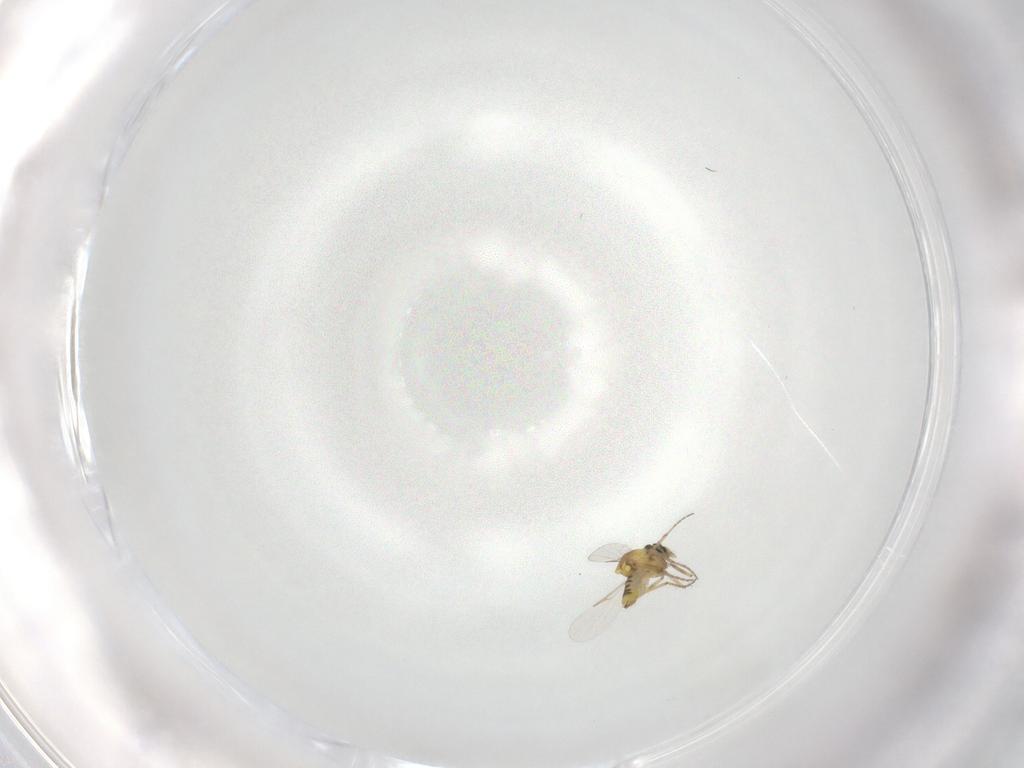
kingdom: Animalia
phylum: Arthropoda
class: Insecta
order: Diptera
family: Ceratopogonidae
